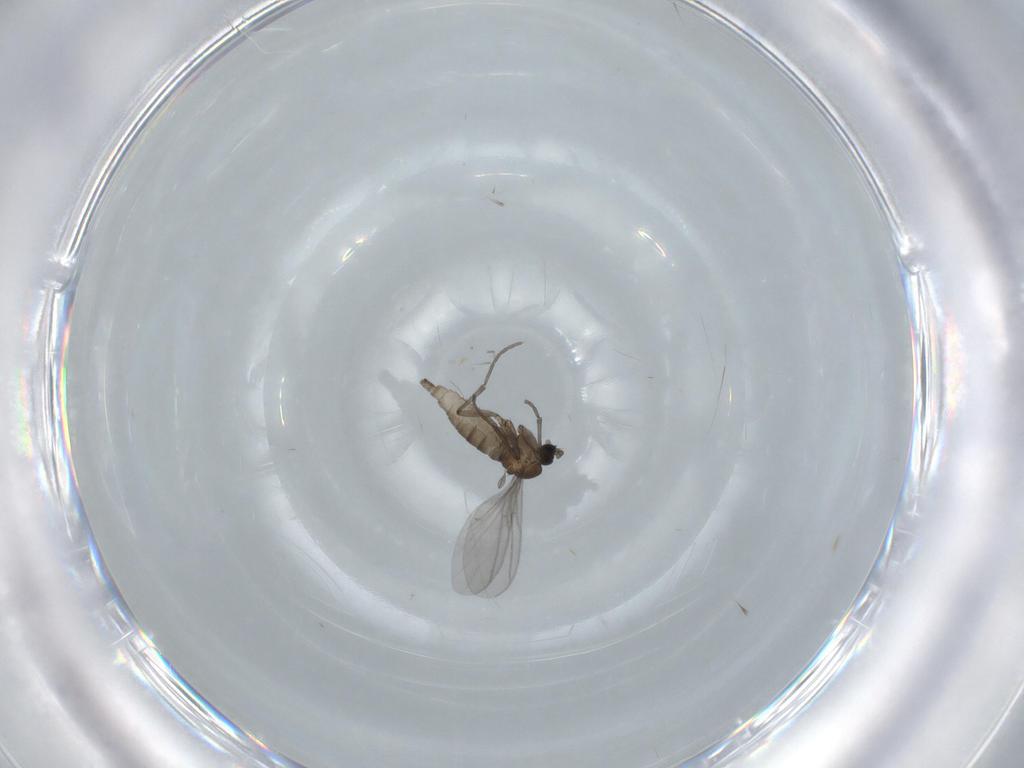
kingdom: Animalia
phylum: Arthropoda
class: Insecta
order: Diptera
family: Sciaridae
